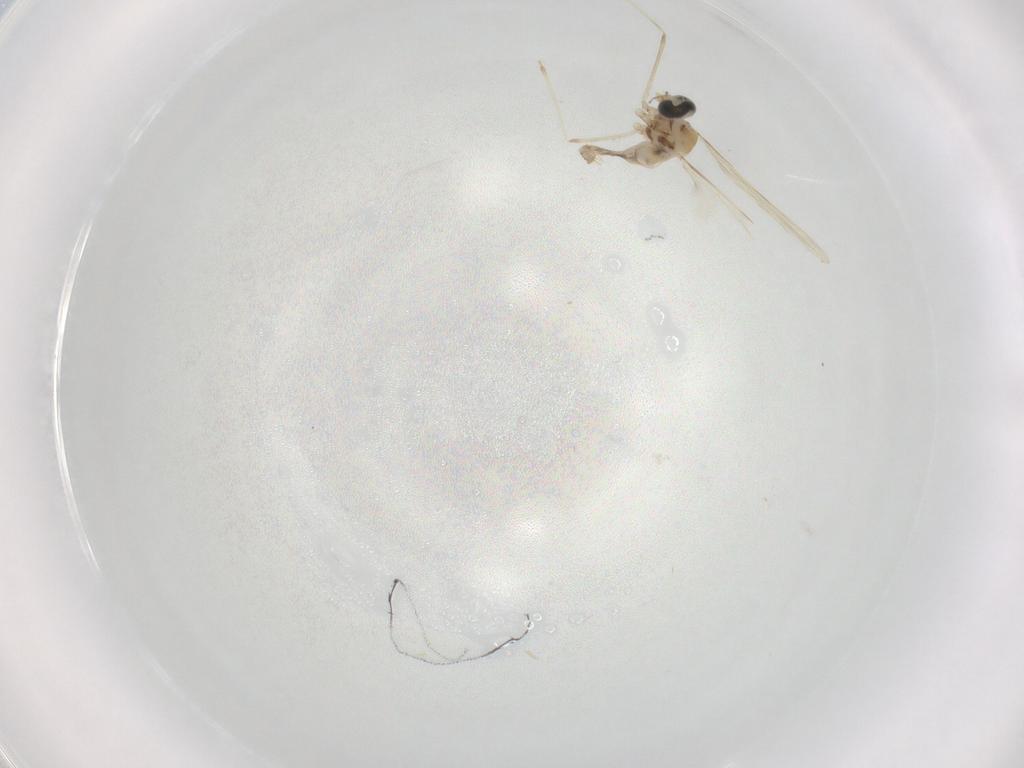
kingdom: Animalia
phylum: Arthropoda
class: Insecta
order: Diptera
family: Cecidomyiidae
